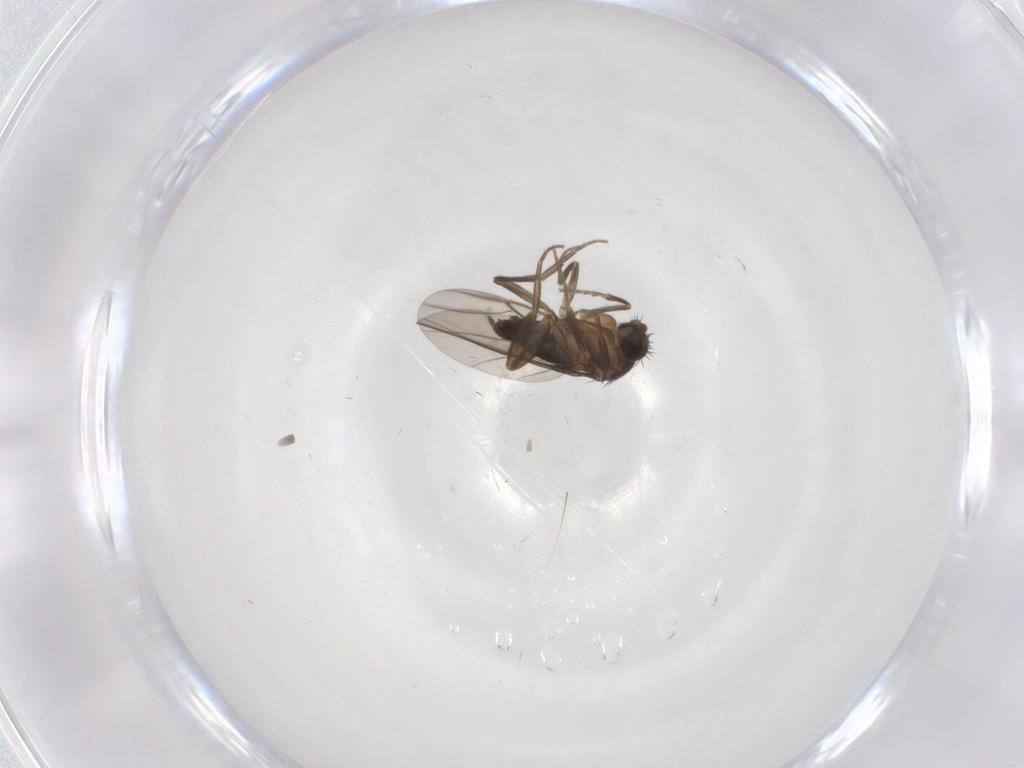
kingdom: Animalia
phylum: Arthropoda
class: Insecta
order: Diptera
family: Phoridae
